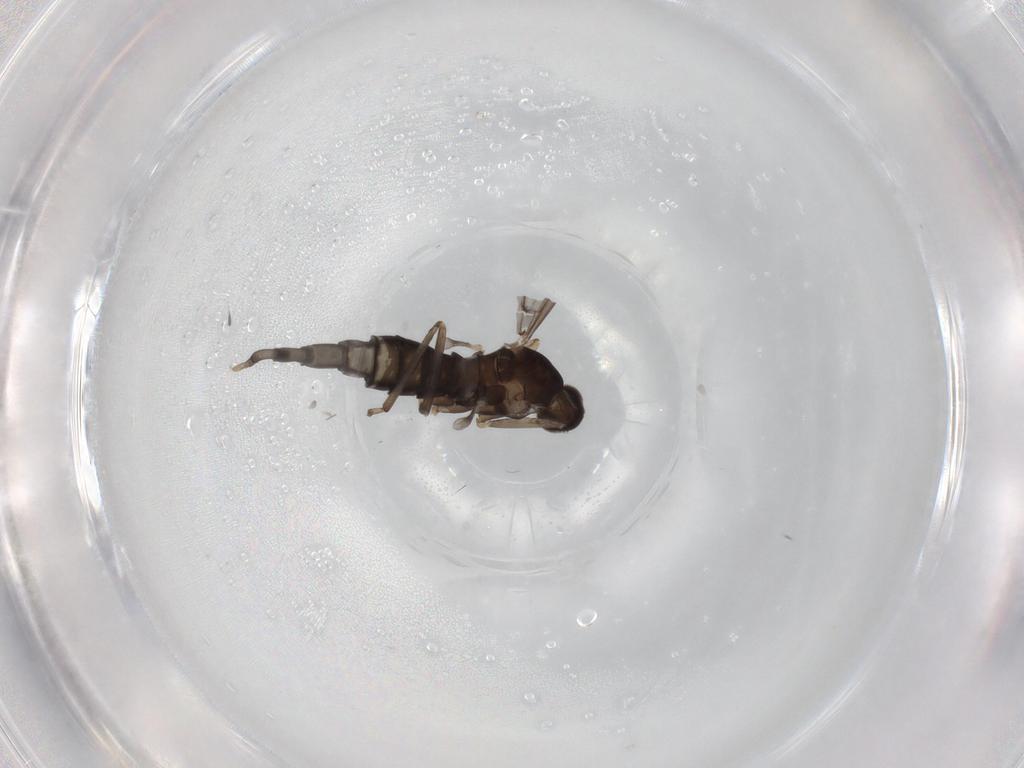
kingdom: Animalia
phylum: Arthropoda
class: Insecta
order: Diptera
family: Cecidomyiidae
